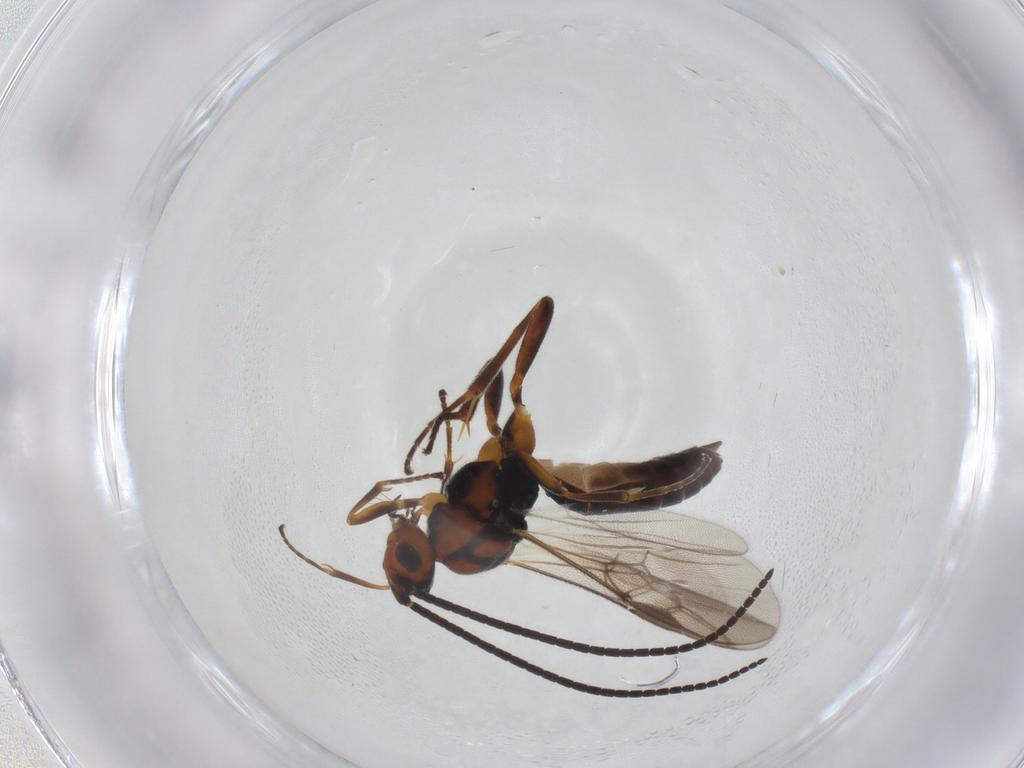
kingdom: Animalia
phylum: Arthropoda
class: Insecta
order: Hymenoptera
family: Braconidae
